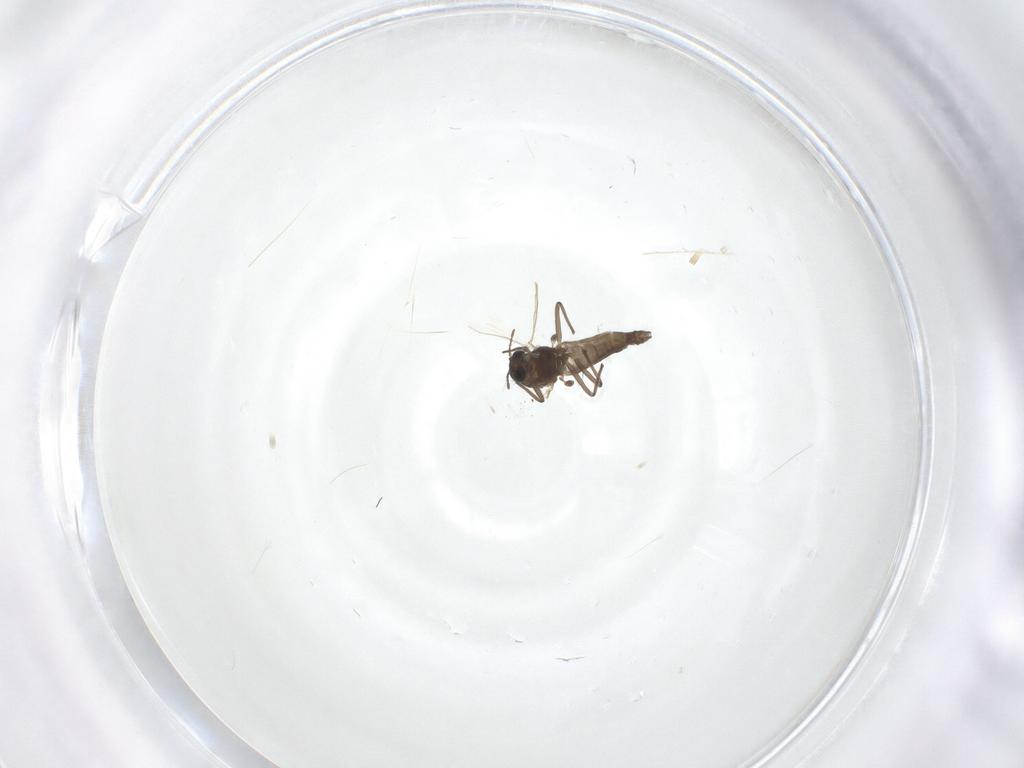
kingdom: Animalia
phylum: Arthropoda
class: Insecta
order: Diptera
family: Chironomidae
